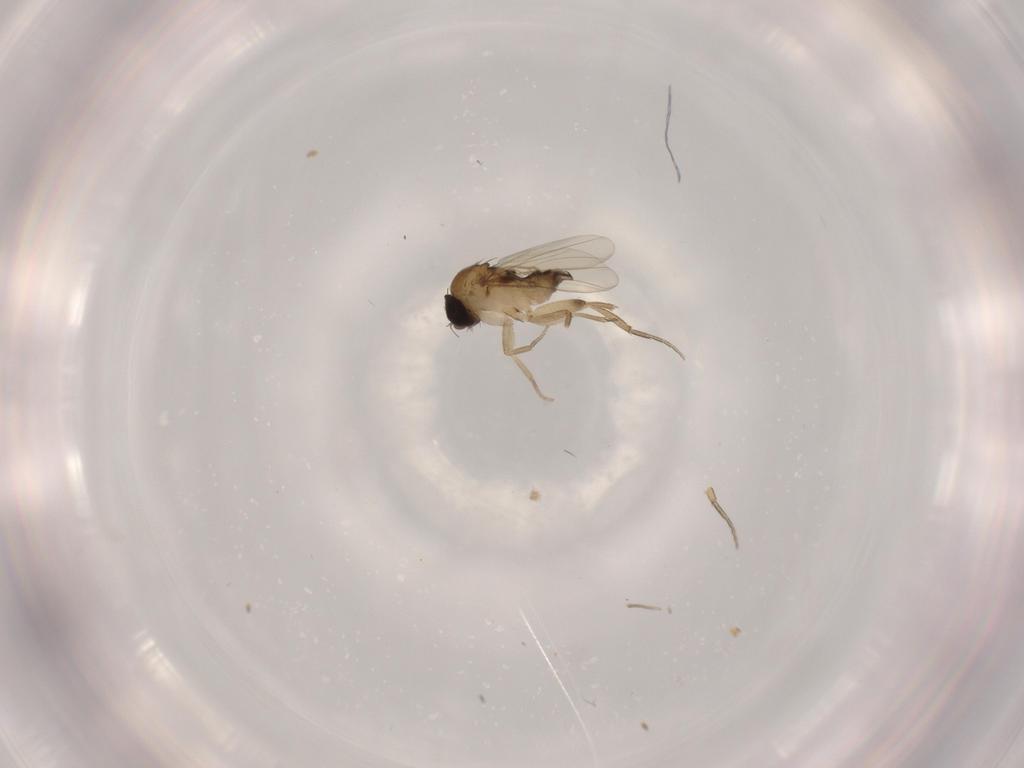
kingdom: Animalia
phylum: Arthropoda
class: Insecta
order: Diptera
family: Phoridae
